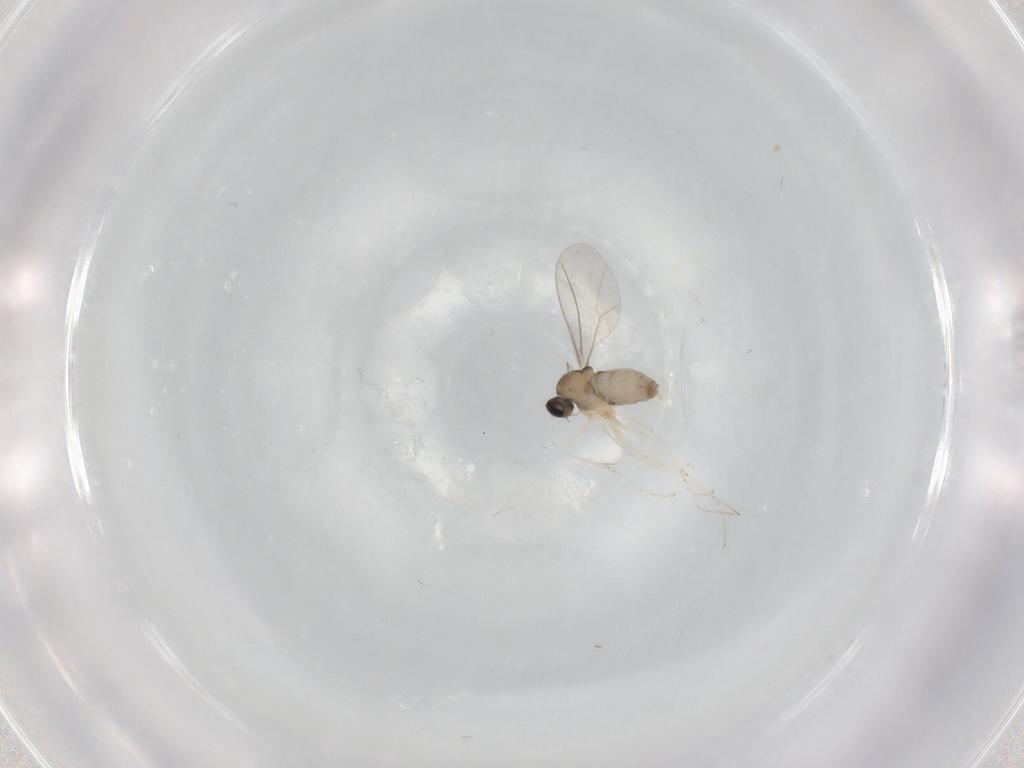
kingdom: Animalia
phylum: Arthropoda
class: Insecta
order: Diptera
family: Cecidomyiidae
